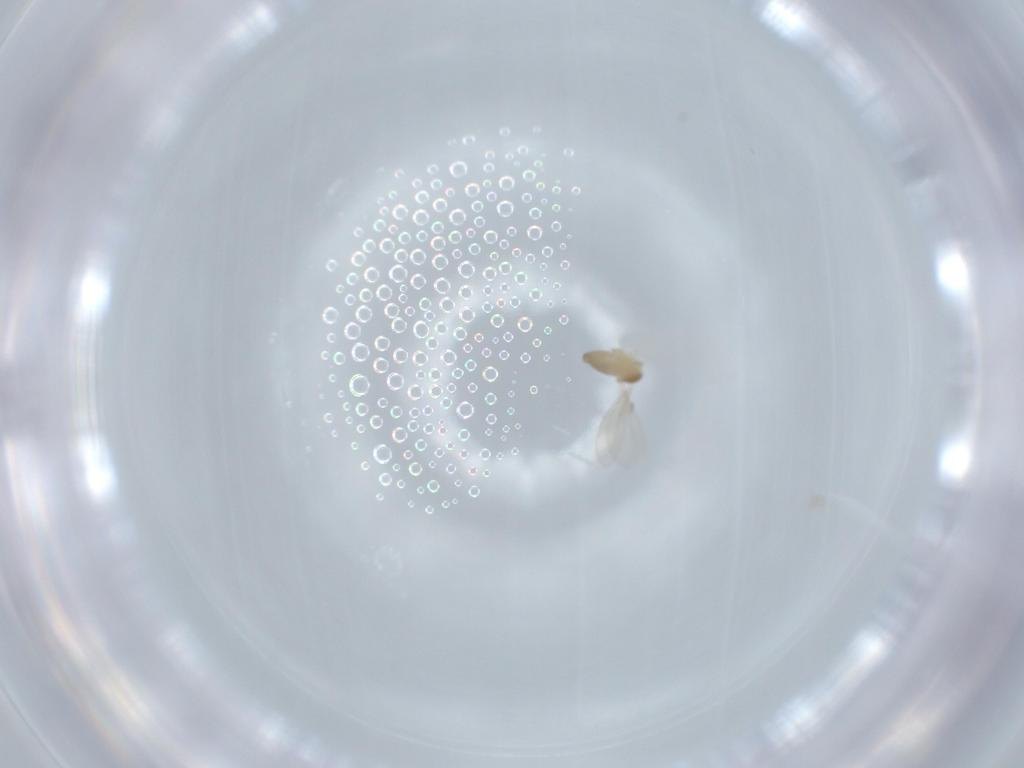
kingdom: Animalia
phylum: Arthropoda
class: Insecta
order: Diptera
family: Cecidomyiidae
